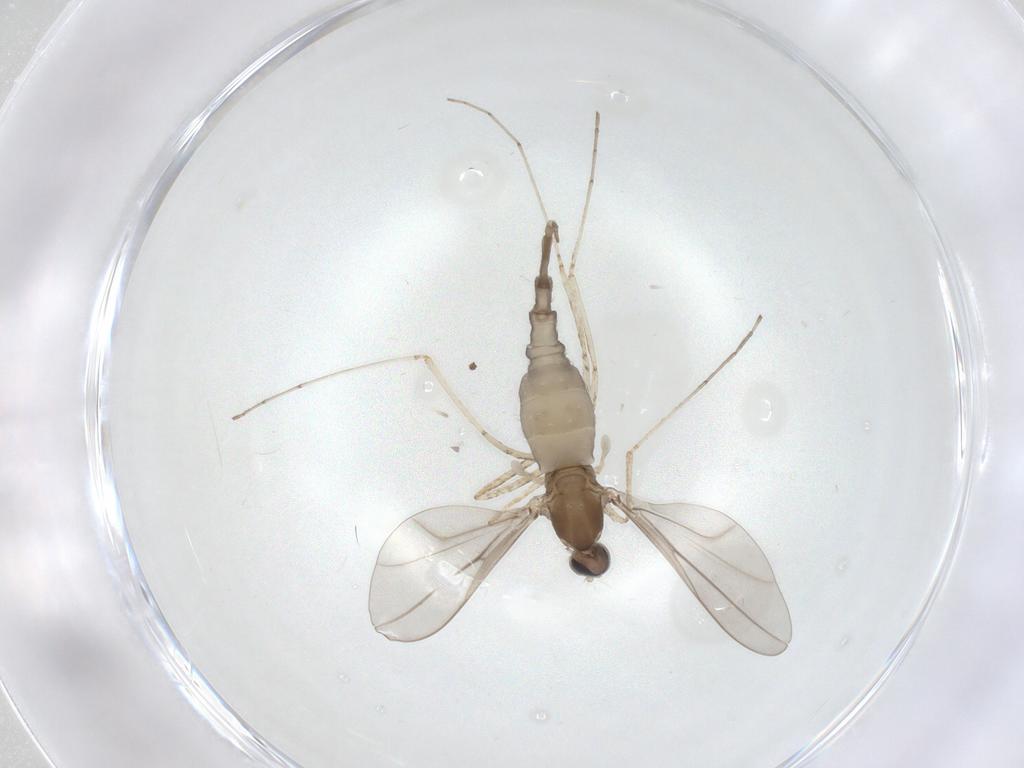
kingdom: Animalia
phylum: Arthropoda
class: Insecta
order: Diptera
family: Cecidomyiidae
